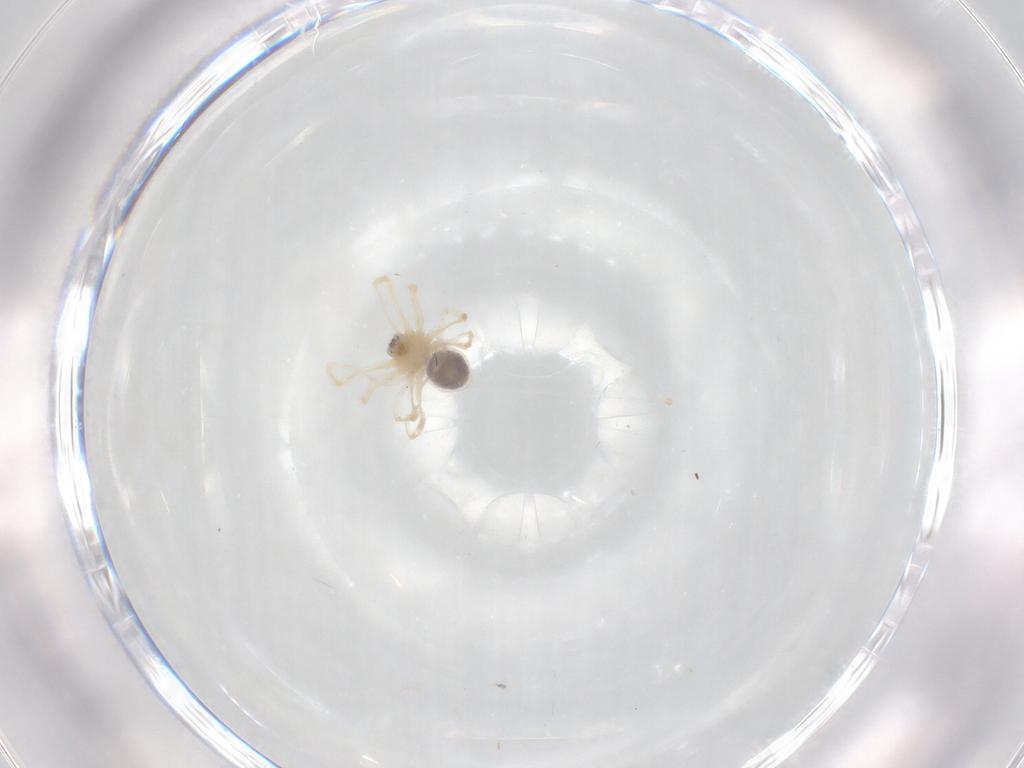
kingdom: Animalia
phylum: Arthropoda
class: Arachnida
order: Araneae
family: Pholcidae
